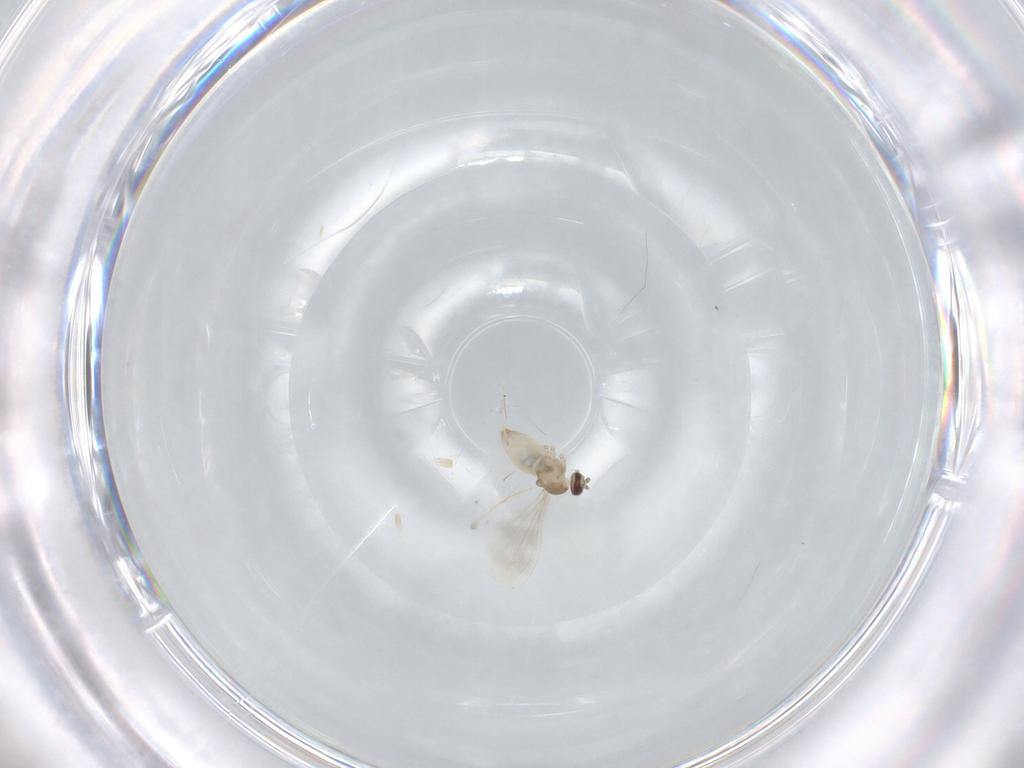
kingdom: Animalia
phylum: Arthropoda
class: Insecta
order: Diptera
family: Cecidomyiidae
